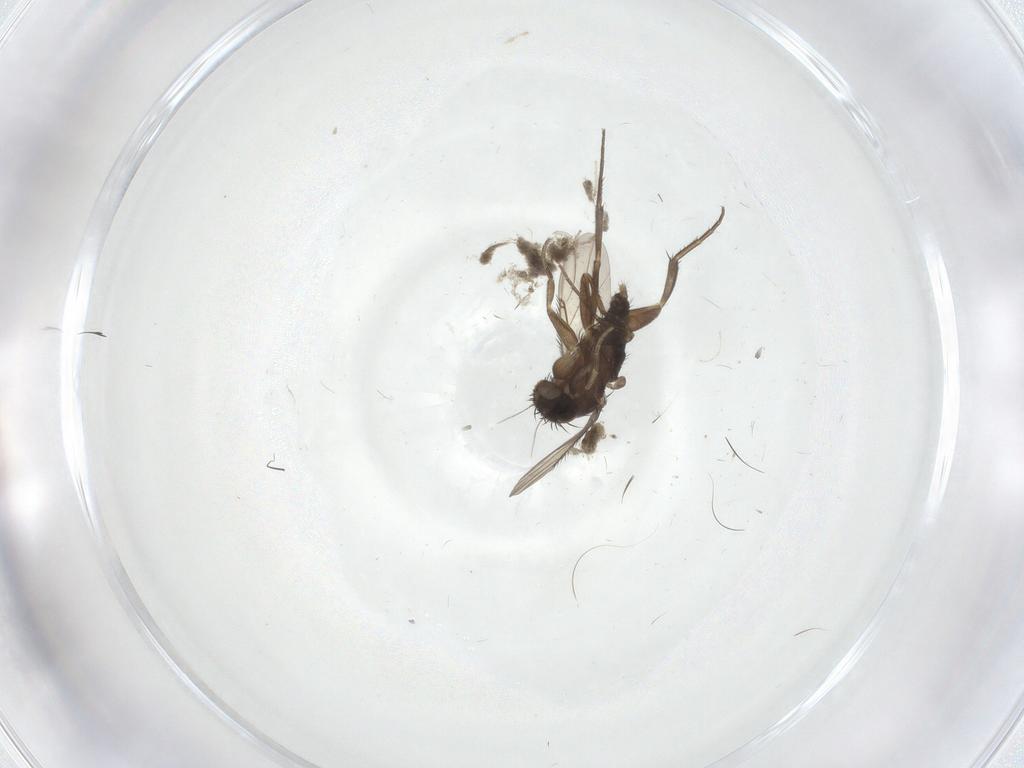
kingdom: Animalia
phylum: Arthropoda
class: Insecta
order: Diptera
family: Phoridae
